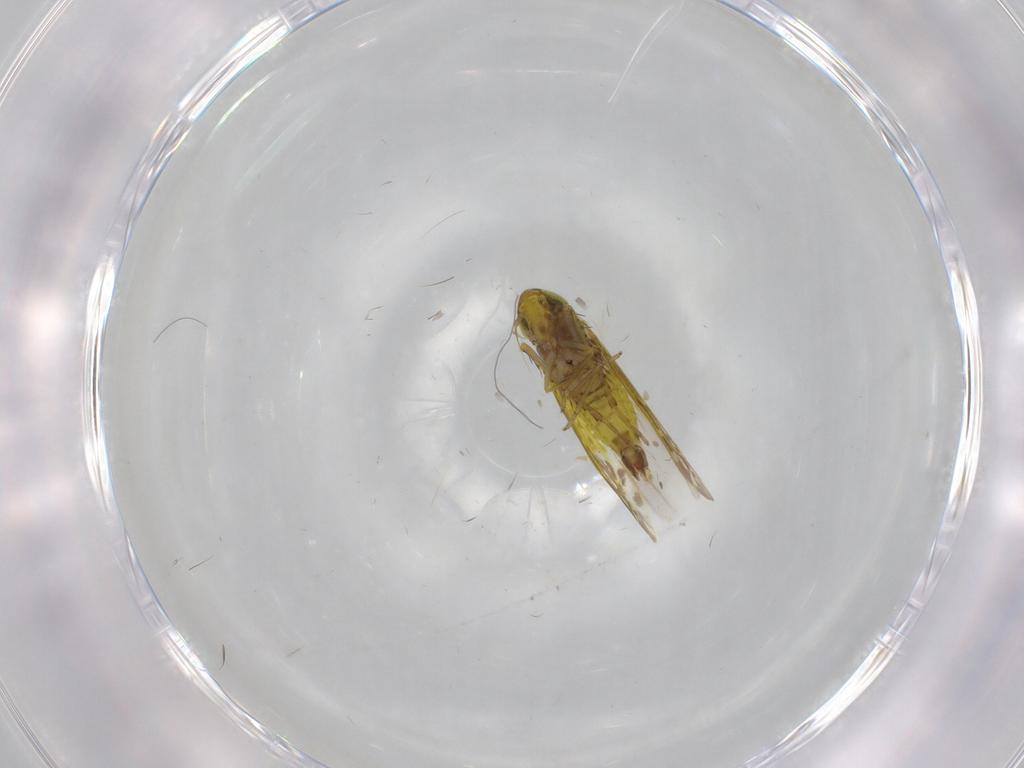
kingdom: Animalia
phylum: Arthropoda
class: Insecta
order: Hemiptera
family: Cicadellidae
